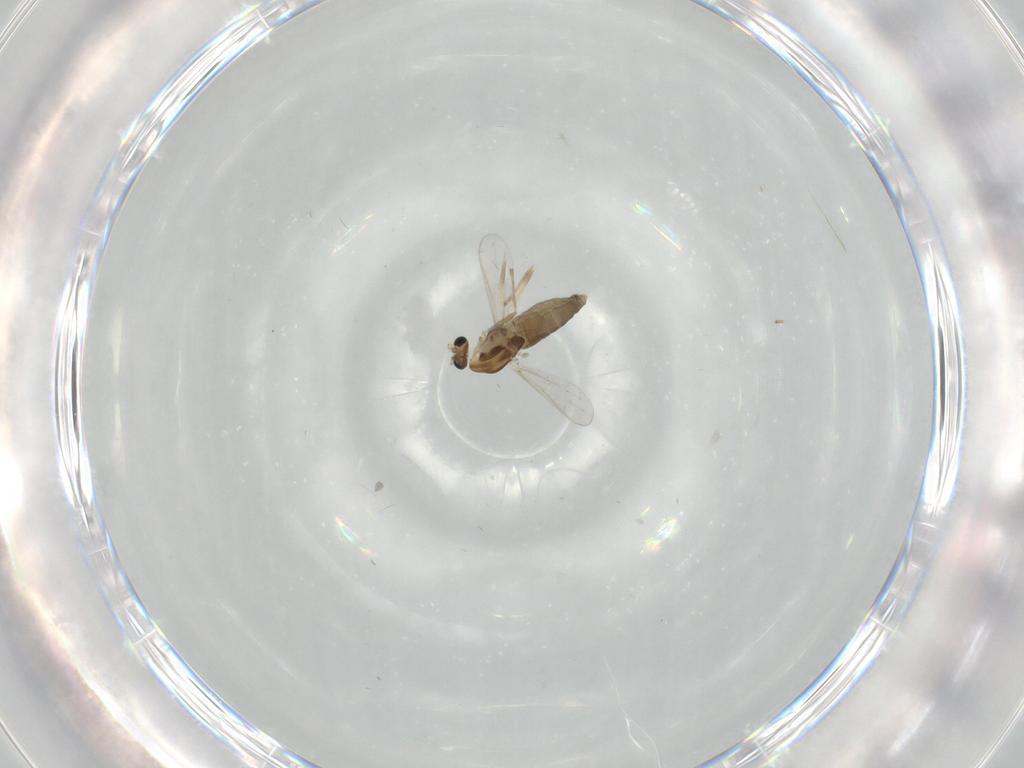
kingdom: Animalia
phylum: Arthropoda
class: Insecta
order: Diptera
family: Chironomidae
